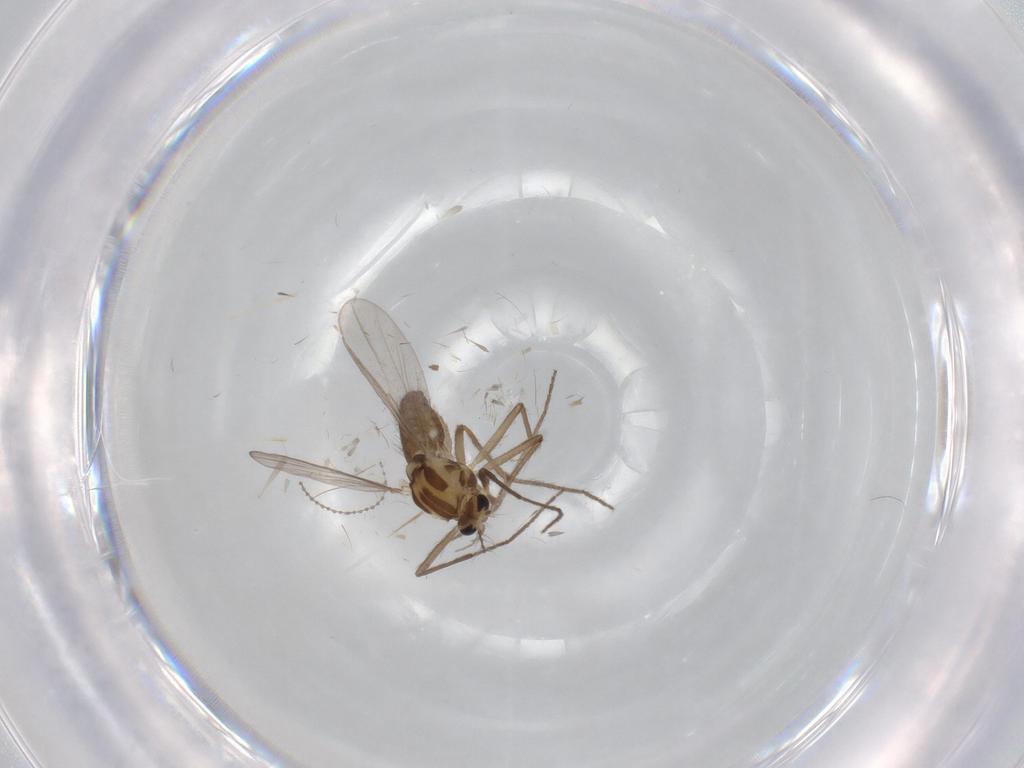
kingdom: Animalia
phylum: Arthropoda
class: Insecta
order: Diptera
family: Chironomidae
